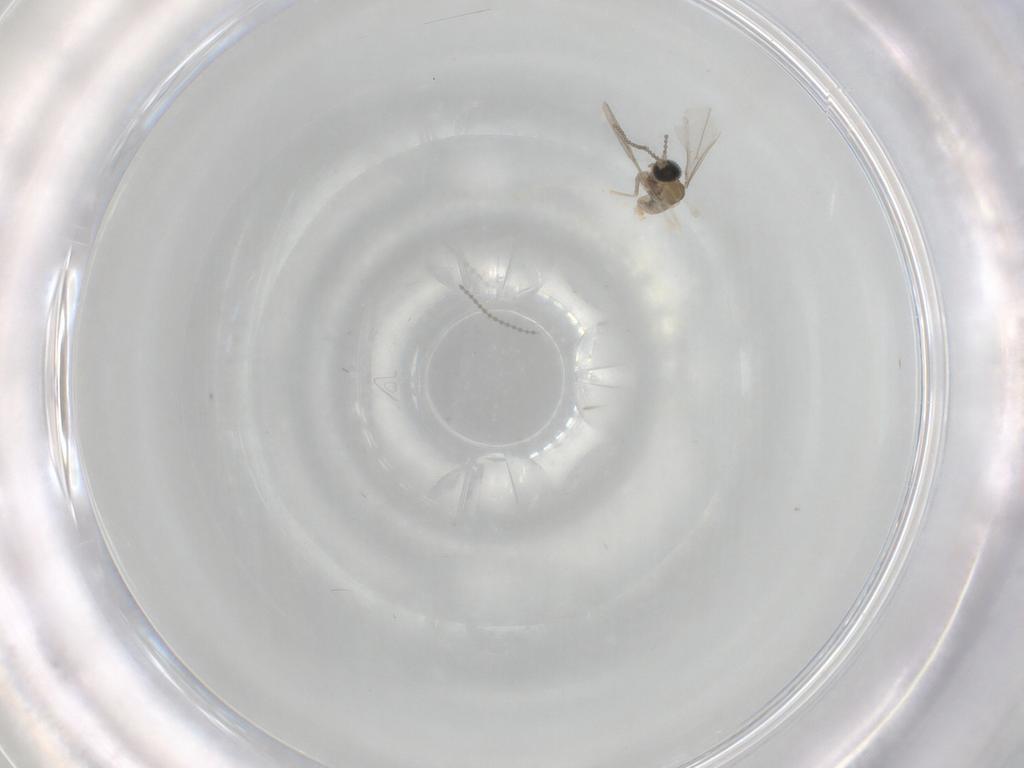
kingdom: Animalia
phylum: Arthropoda
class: Insecta
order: Diptera
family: Cecidomyiidae
